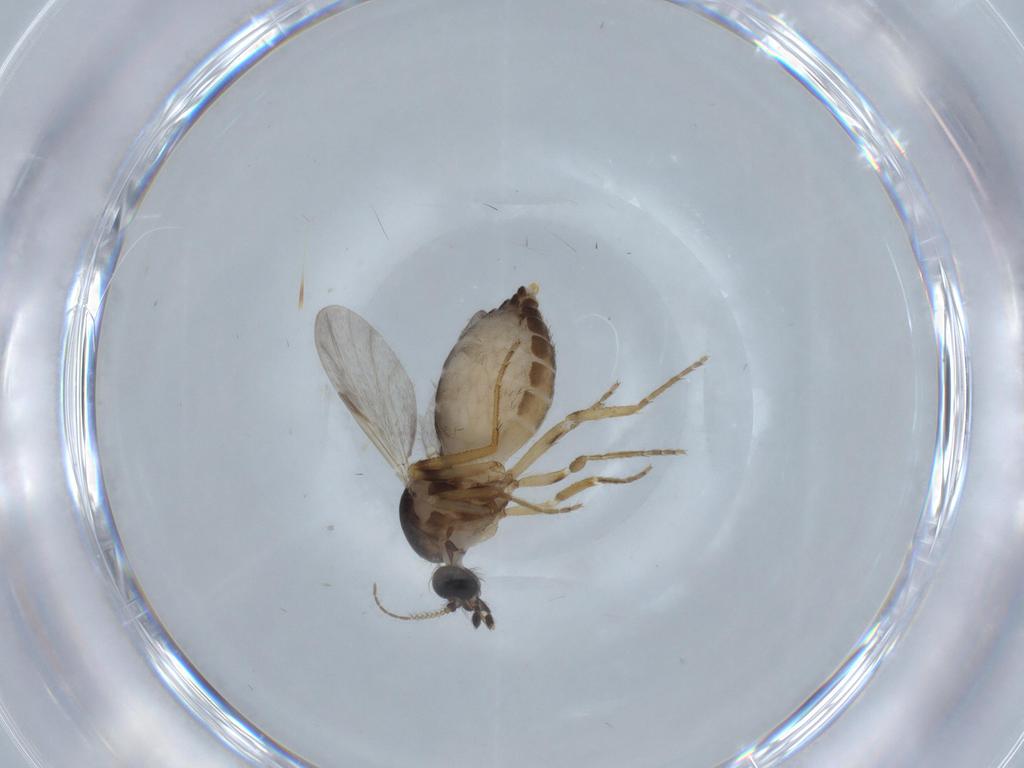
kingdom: Animalia
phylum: Arthropoda
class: Insecta
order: Diptera
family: Ceratopogonidae
